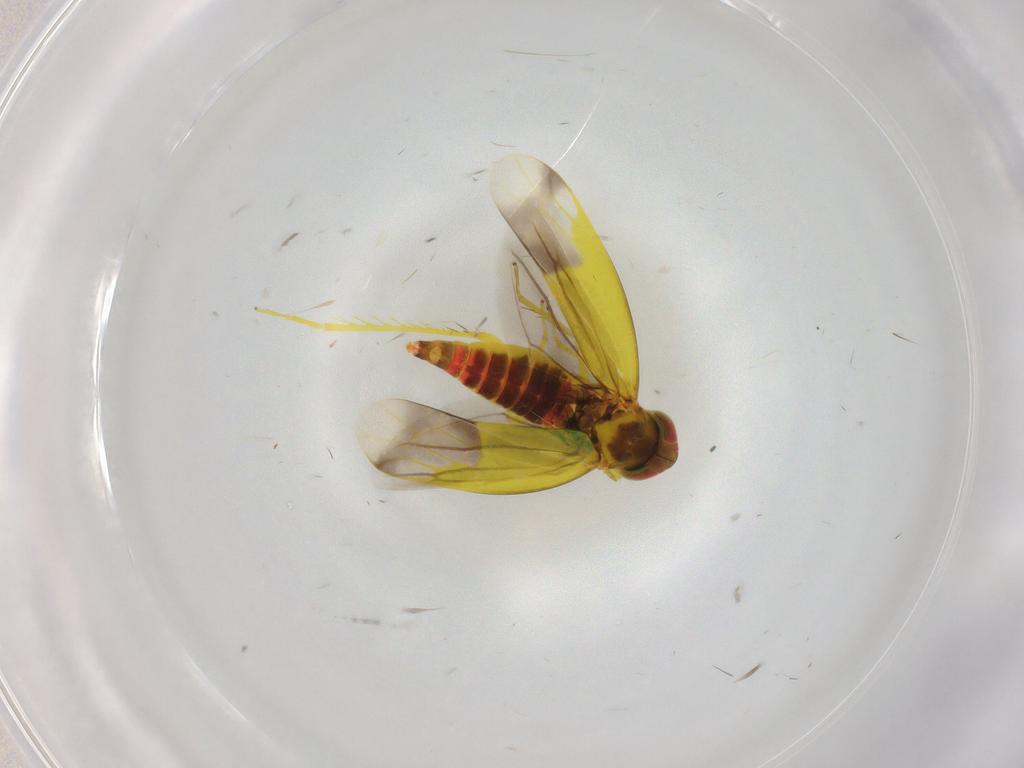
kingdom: Animalia
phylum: Arthropoda
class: Insecta
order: Hemiptera
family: Cicadellidae
